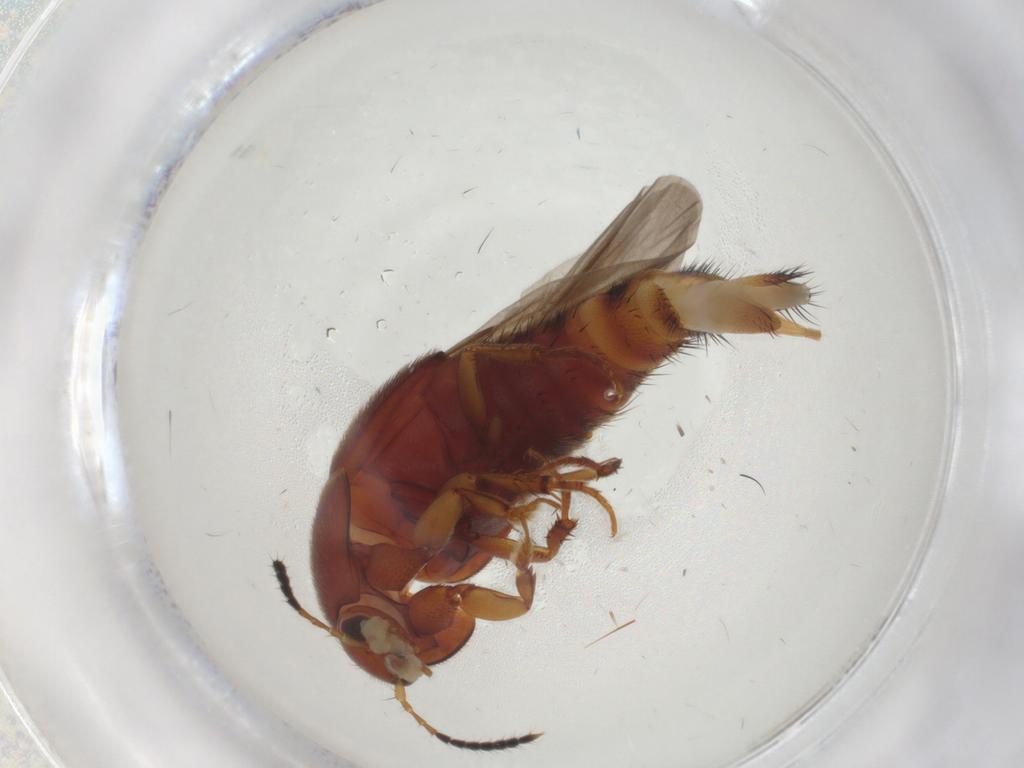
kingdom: Animalia
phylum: Arthropoda
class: Insecta
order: Coleoptera
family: Staphylinidae
